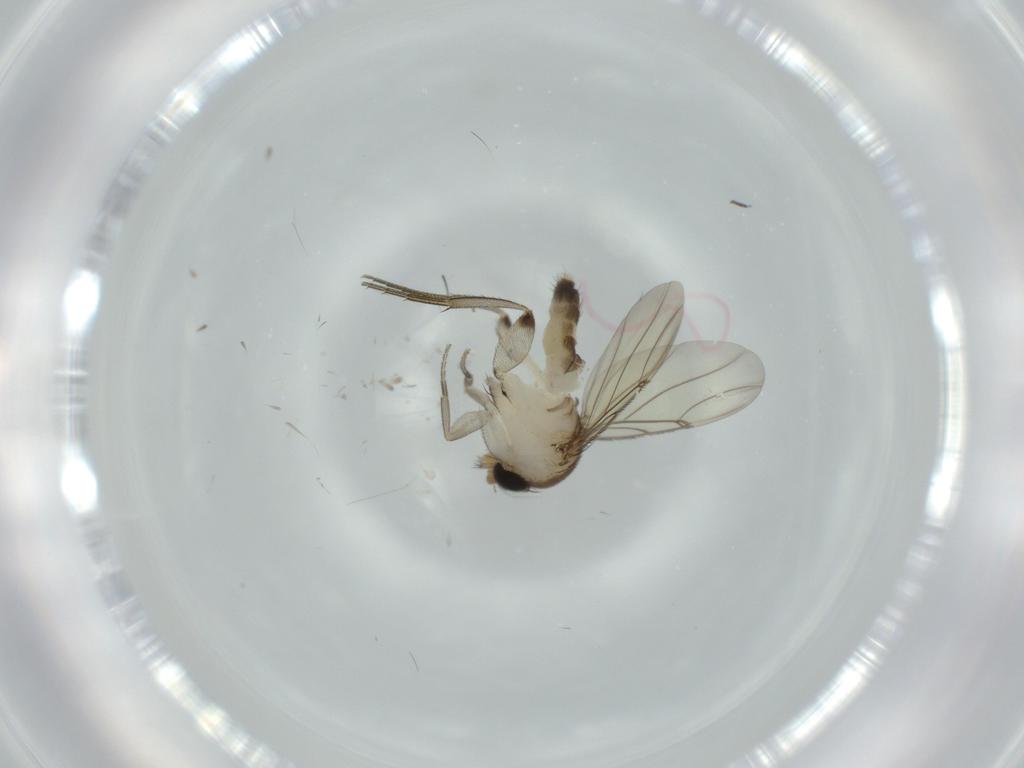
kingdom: Animalia
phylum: Arthropoda
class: Insecta
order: Diptera
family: Phoridae
